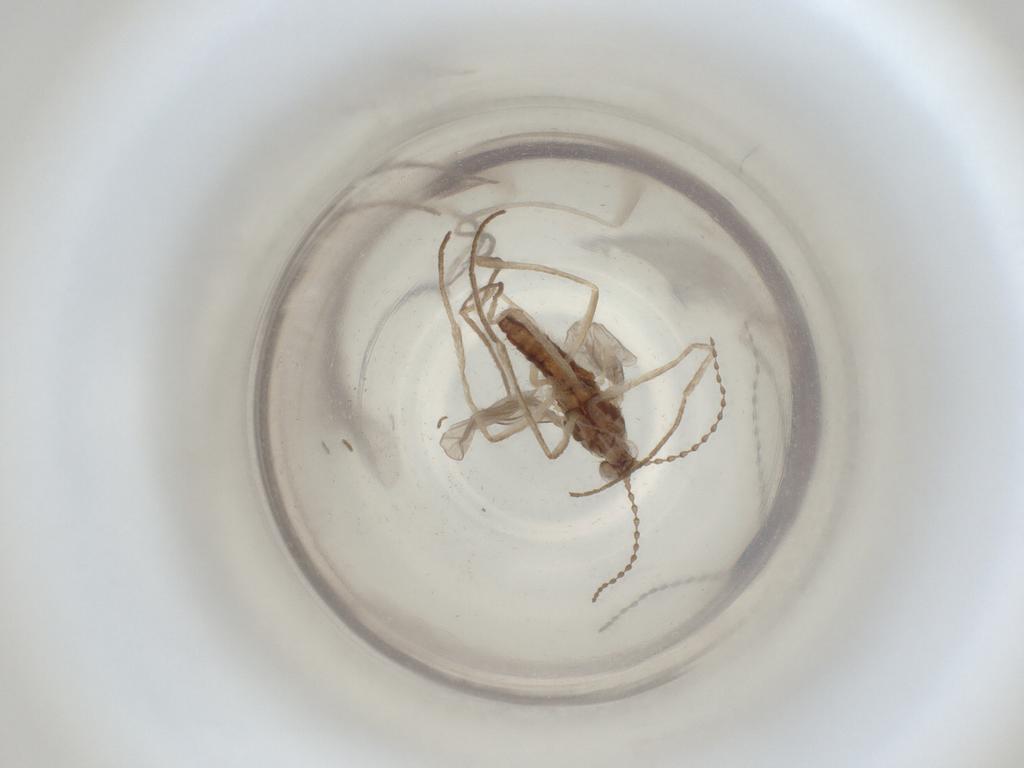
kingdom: Animalia
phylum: Arthropoda
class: Insecta
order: Diptera
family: Cecidomyiidae
